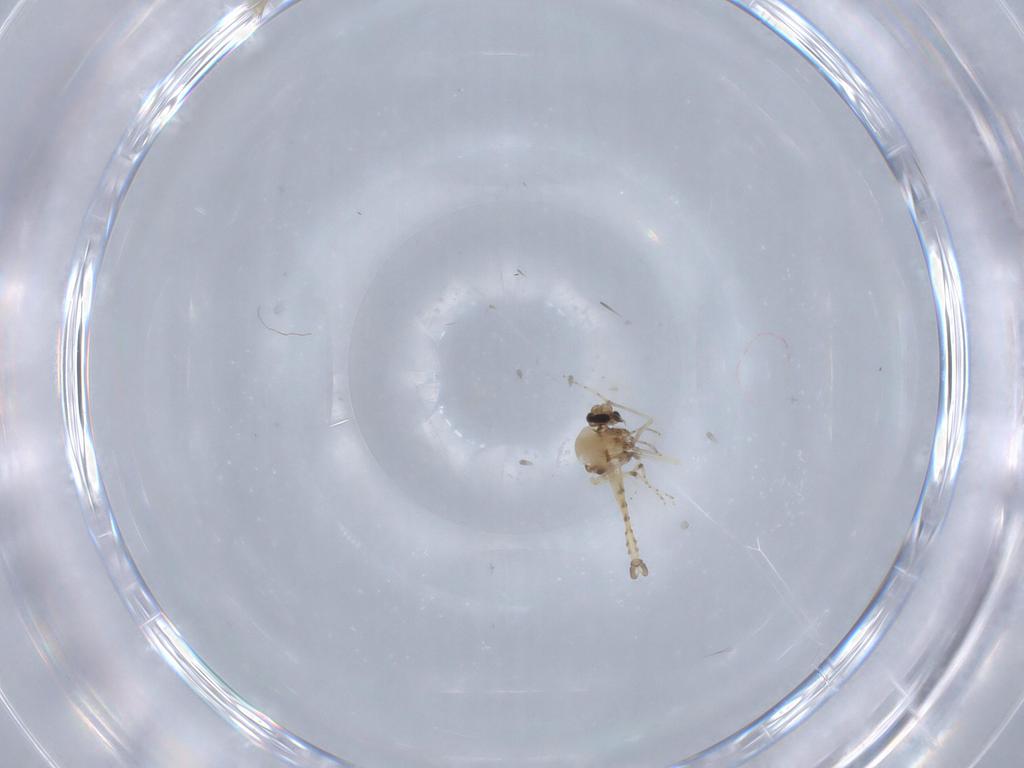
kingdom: Animalia
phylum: Arthropoda
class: Insecta
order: Diptera
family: Ceratopogonidae
